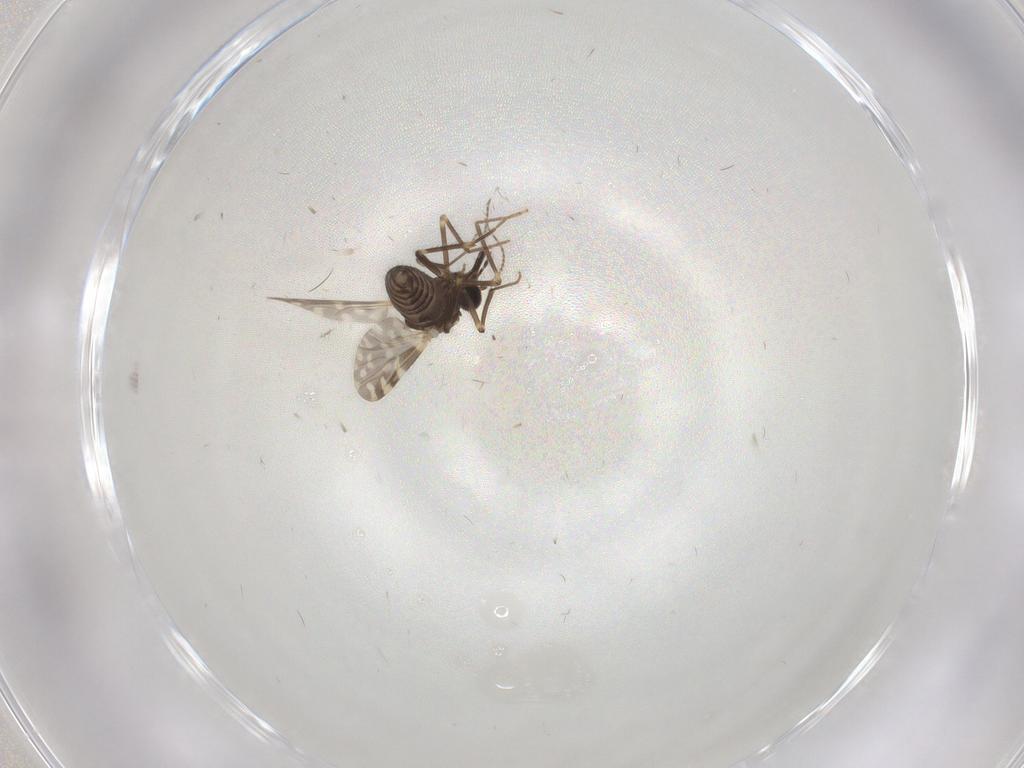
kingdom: Animalia
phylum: Arthropoda
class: Insecta
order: Diptera
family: Ceratopogonidae
